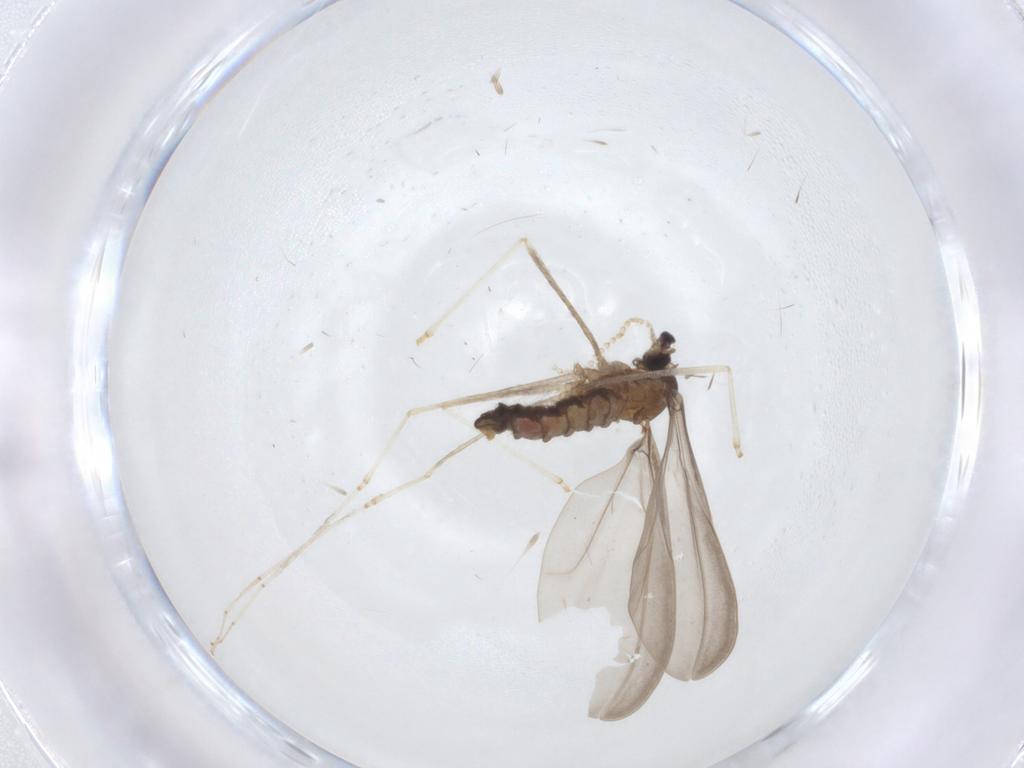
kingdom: Animalia
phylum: Arthropoda
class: Insecta
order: Diptera
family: Cecidomyiidae
